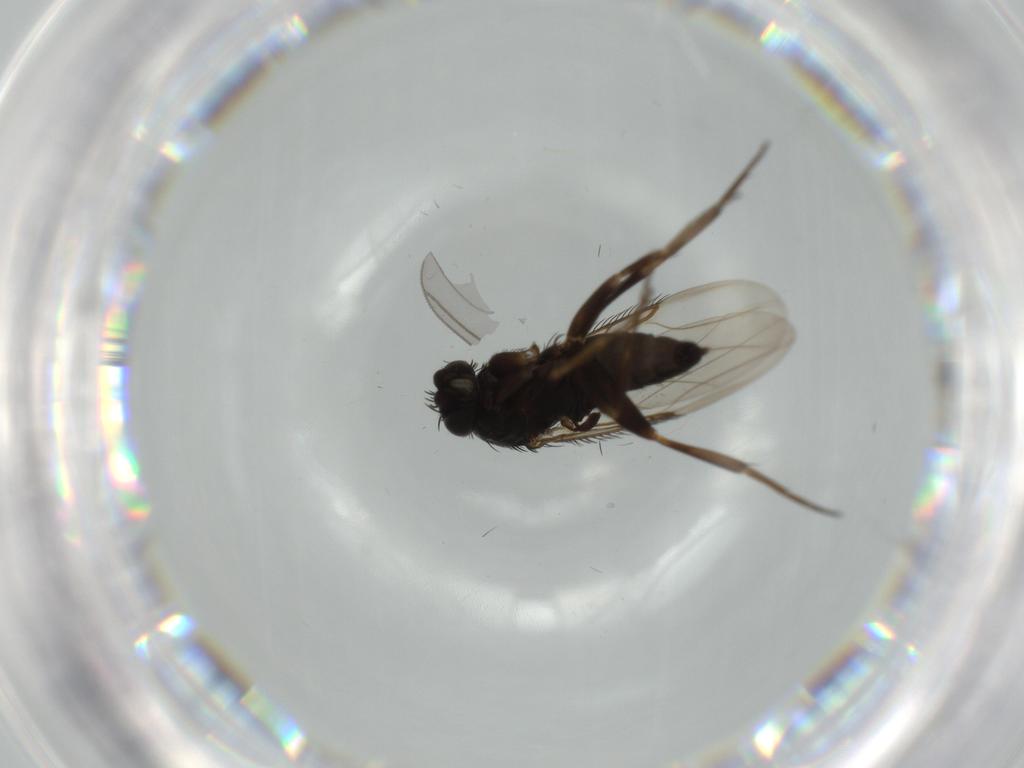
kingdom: Animalia
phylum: Arthropoda
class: Insecta
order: Diptera
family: Phoridae
